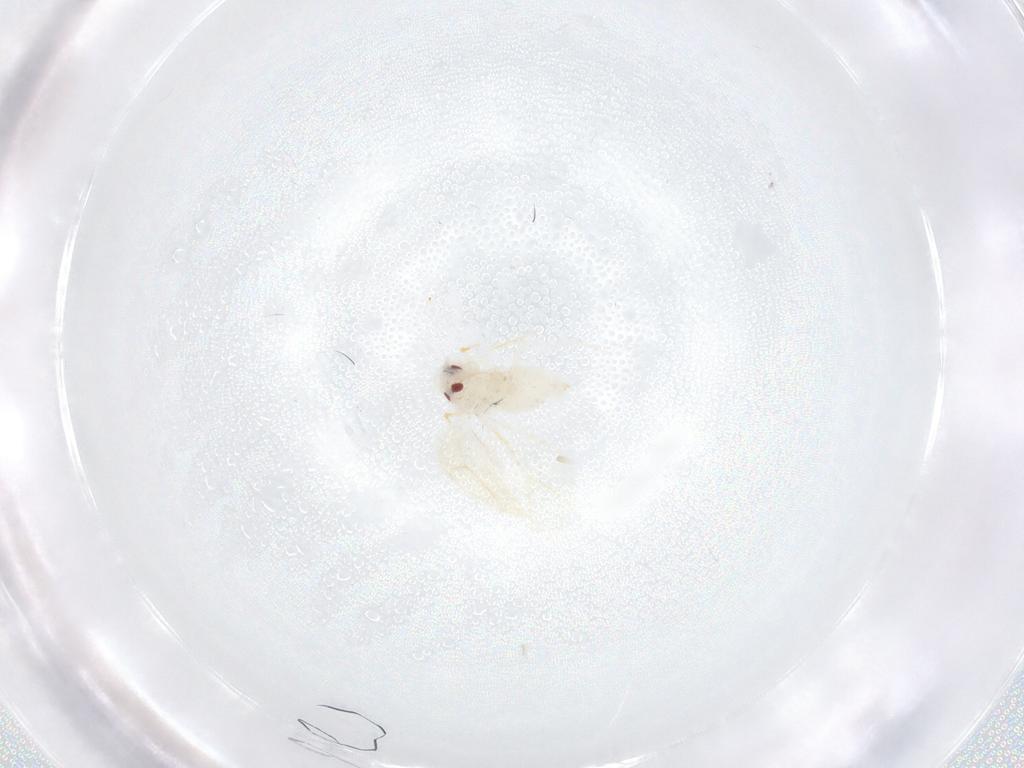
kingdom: Animalia
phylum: Arthropoda
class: Insecta
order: Hemiptera
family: Aleyrodidae
